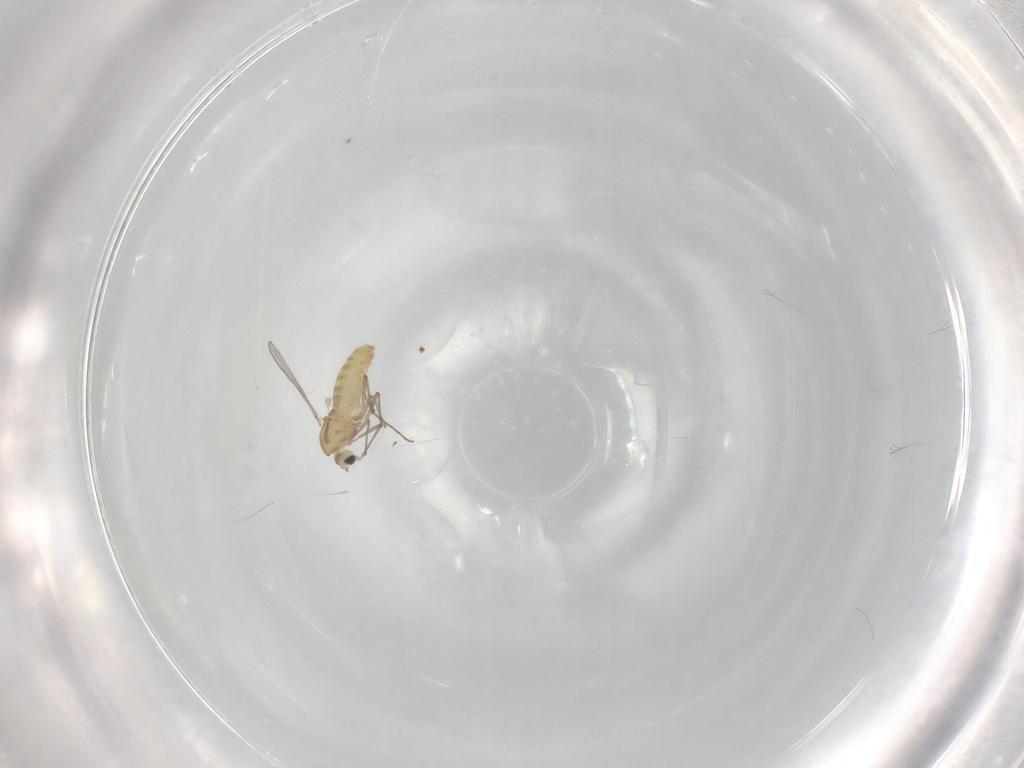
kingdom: Animalia
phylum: Arthropoda
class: Insecta
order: Diptera
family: Chironomidae
